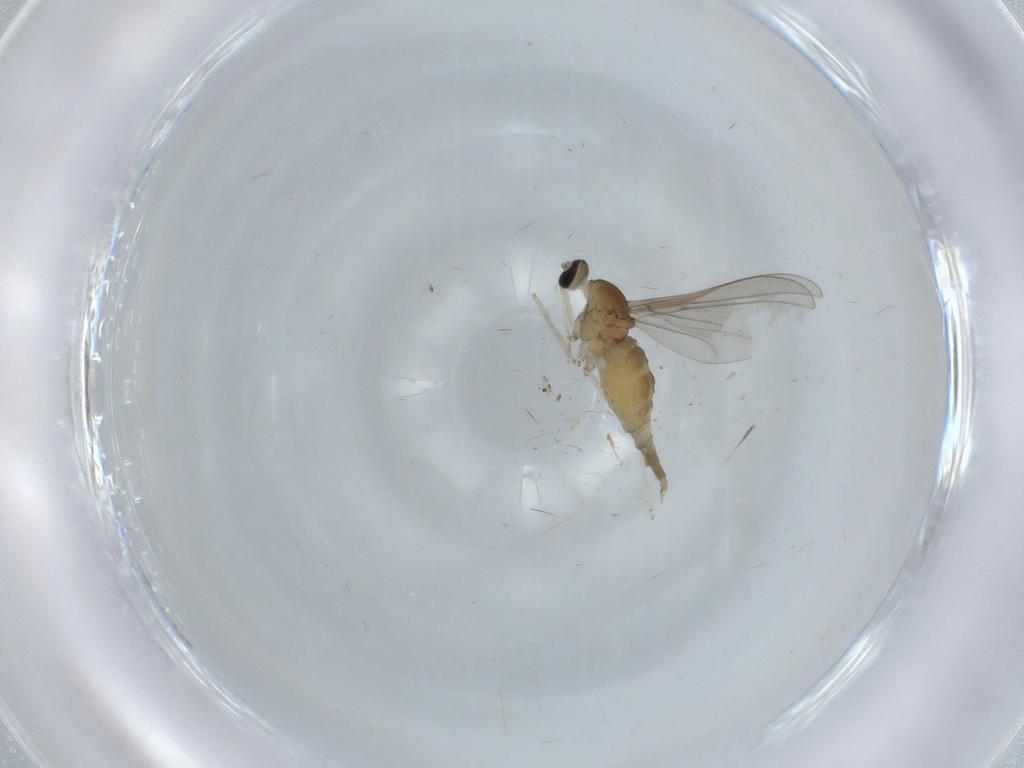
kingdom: Animalia
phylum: Arthropoda
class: Insecta
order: Diptera
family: Cecidomyiidae
